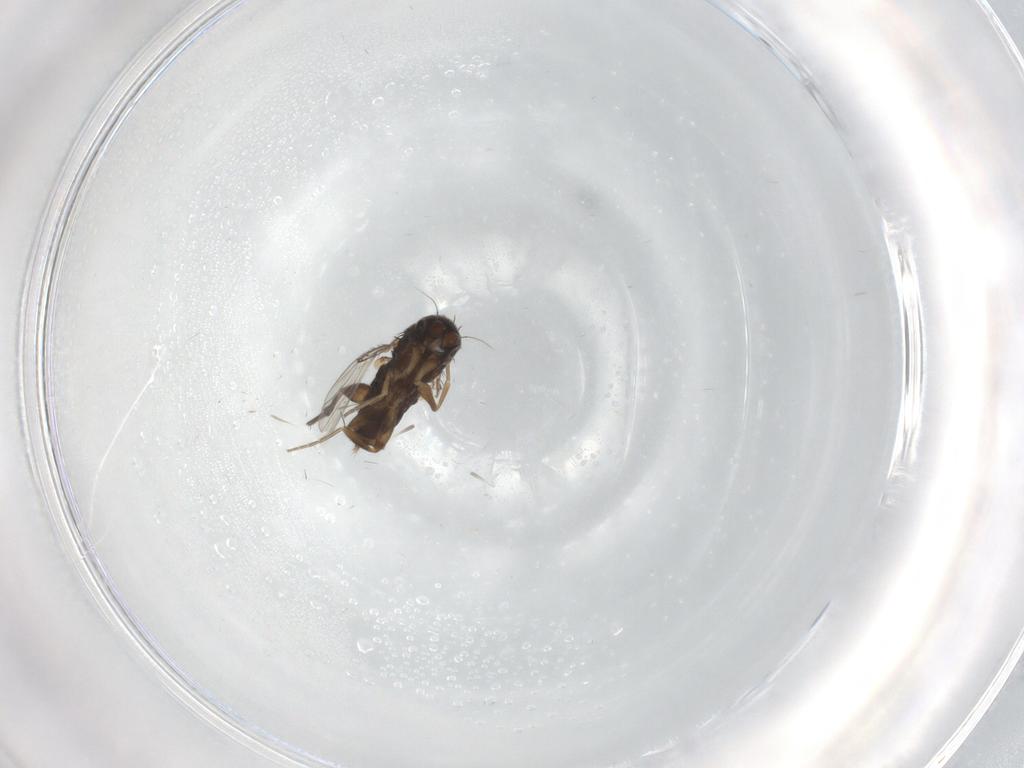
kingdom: Animalia
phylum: Arthropoda
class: Insecta
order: Diptera
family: Phoridae
